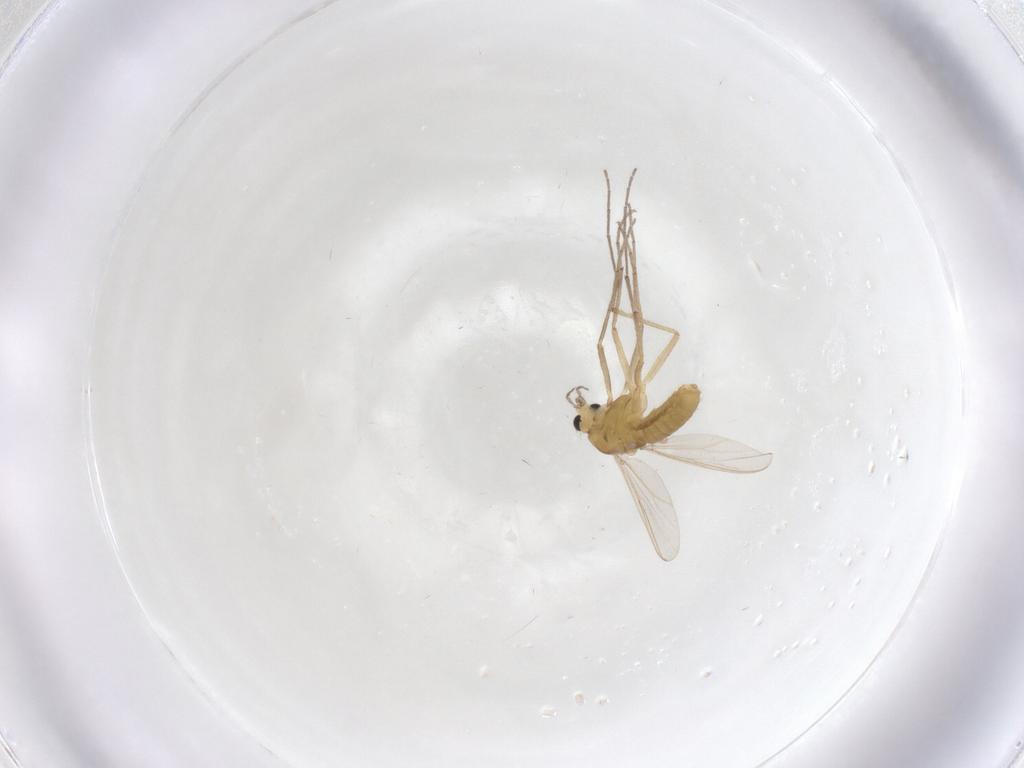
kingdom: Animalia
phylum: Arthropoda
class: Insecta
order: Diptera
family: Chironomidae
